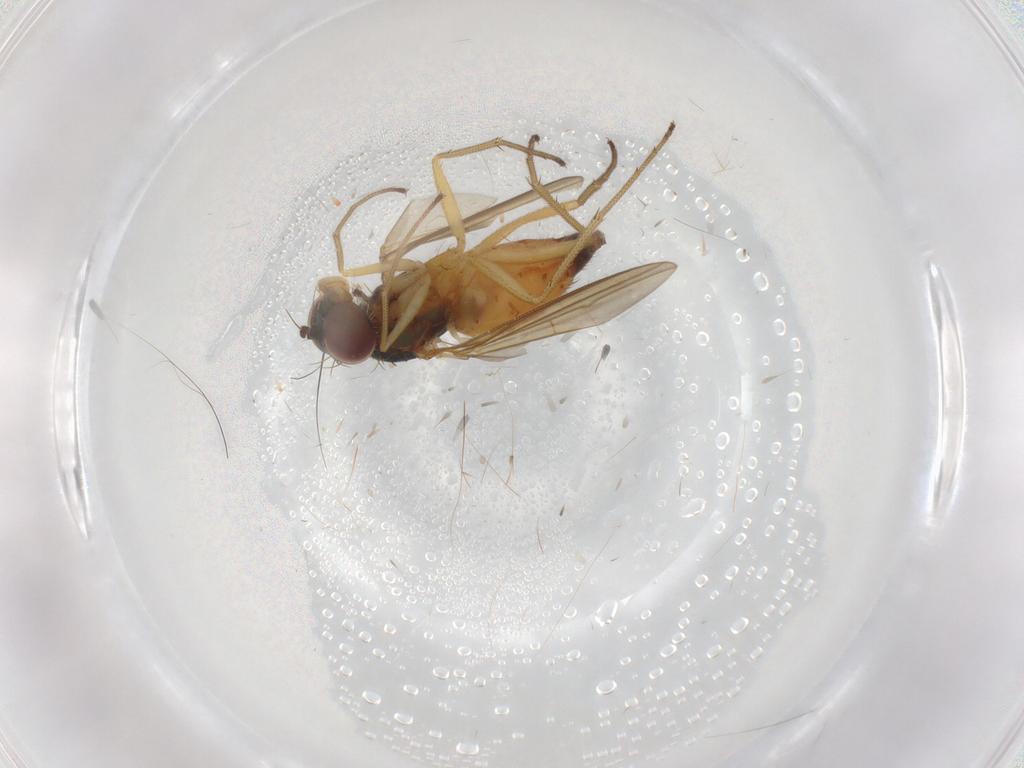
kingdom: Animalia
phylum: Arthropoda
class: Insecta
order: Diptera
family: Dolichopodidae
